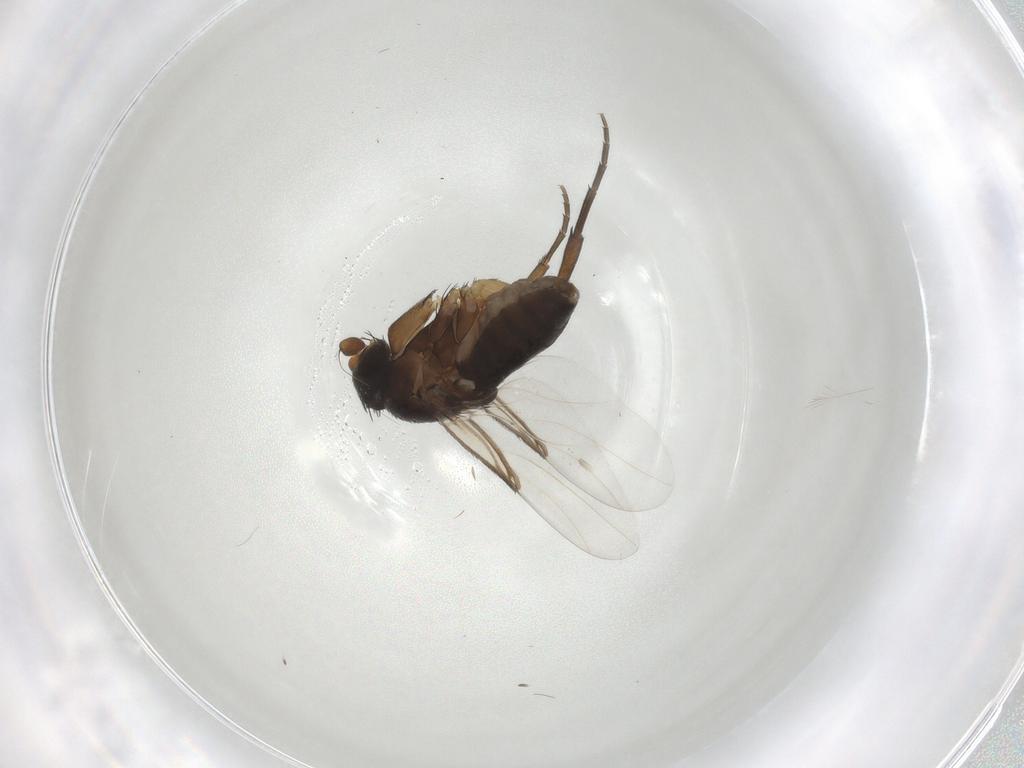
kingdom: Animalia
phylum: Arthropoda
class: Insecta
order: Diptera
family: Phoridae
